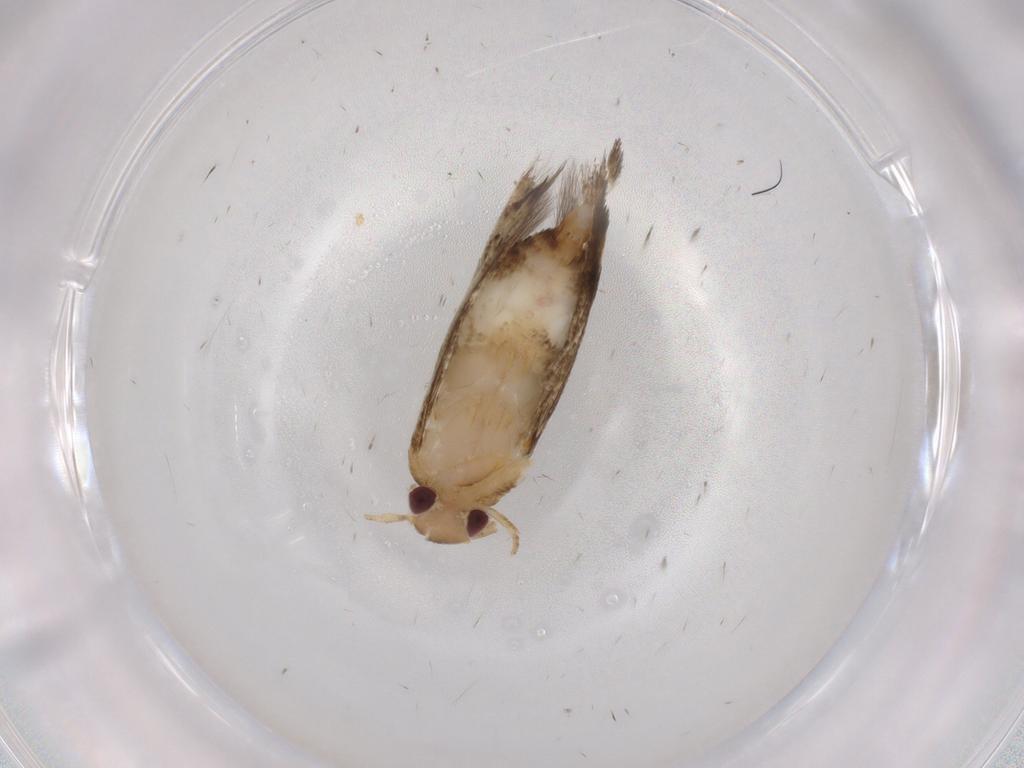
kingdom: Animalia
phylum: Arthropoda
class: Insecta
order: Lepidoptera
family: Momphidae
